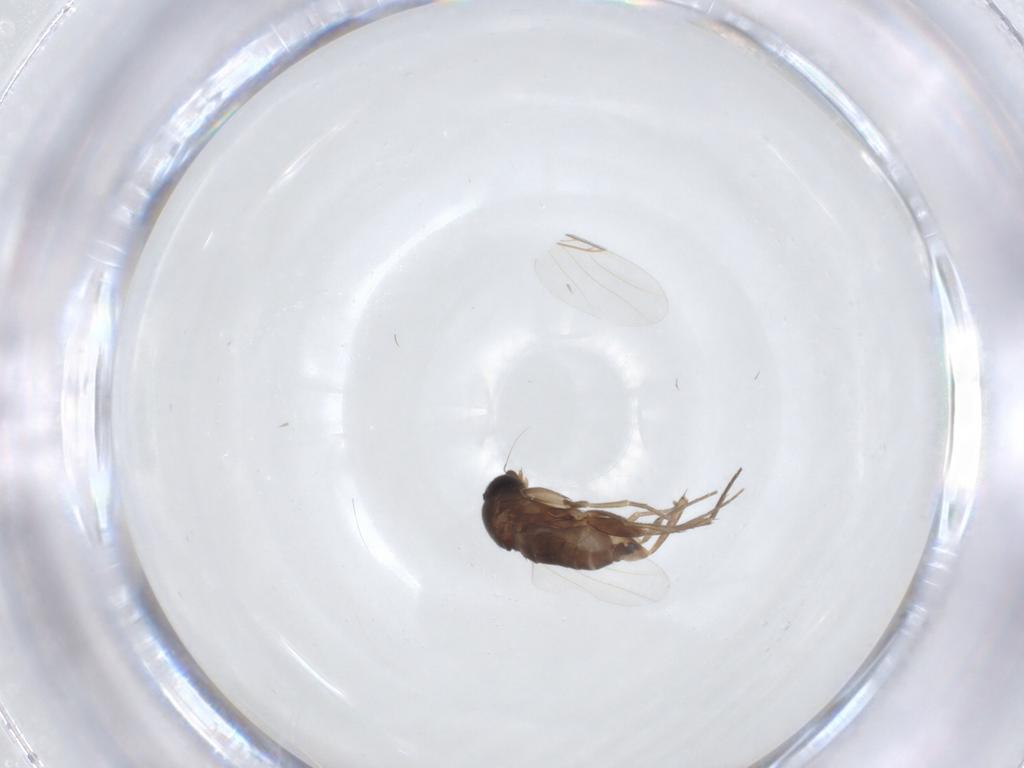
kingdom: Animalia
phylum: Arthropoda
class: Insecta
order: Diptera
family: Phoridae
